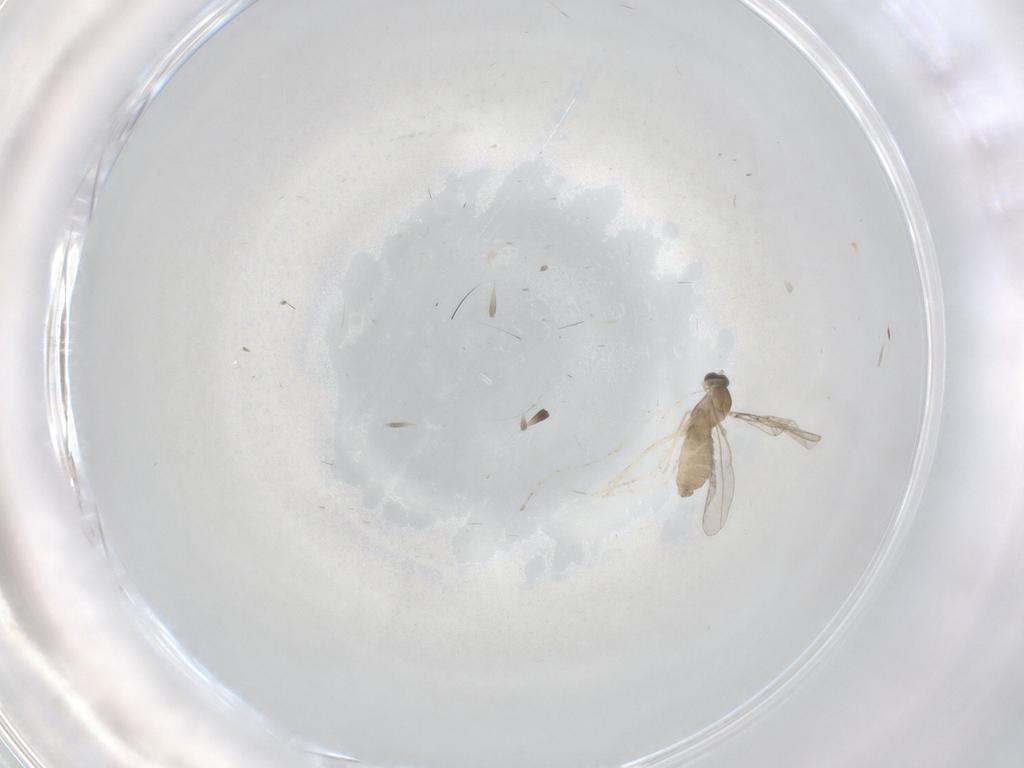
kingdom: Animalia
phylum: Arthropoda
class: Insecta
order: Diptera
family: Cecidomyiidae
